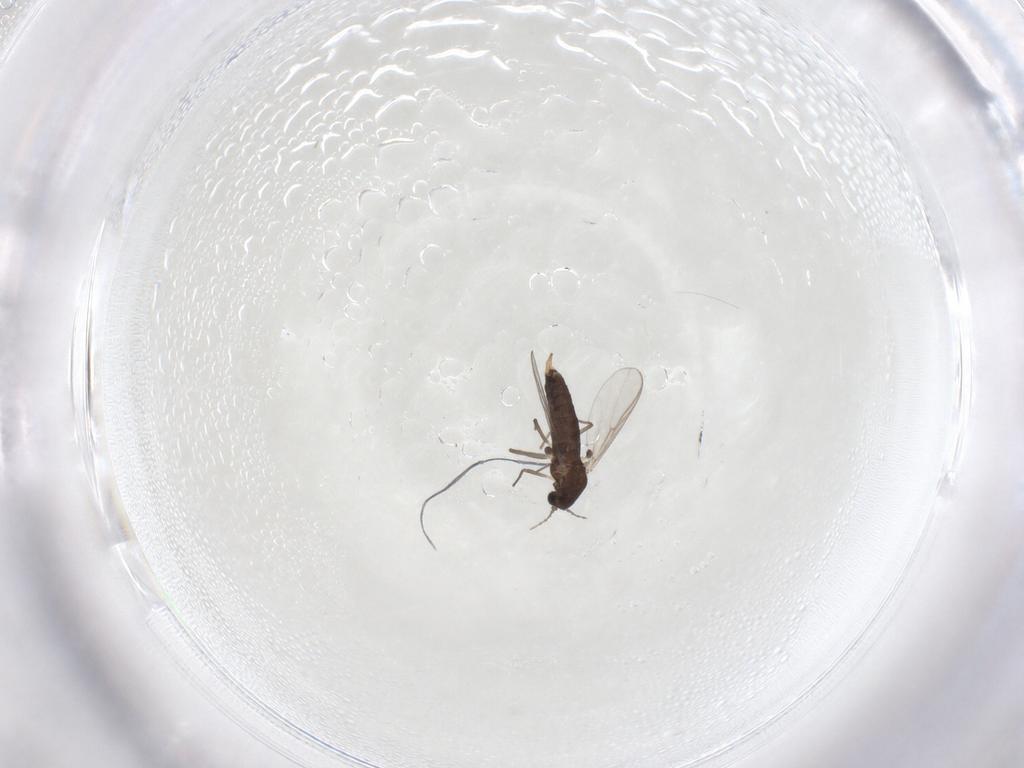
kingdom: Animalia
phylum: Arthropoda
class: Insecta
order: Diptera
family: Chironomidae
